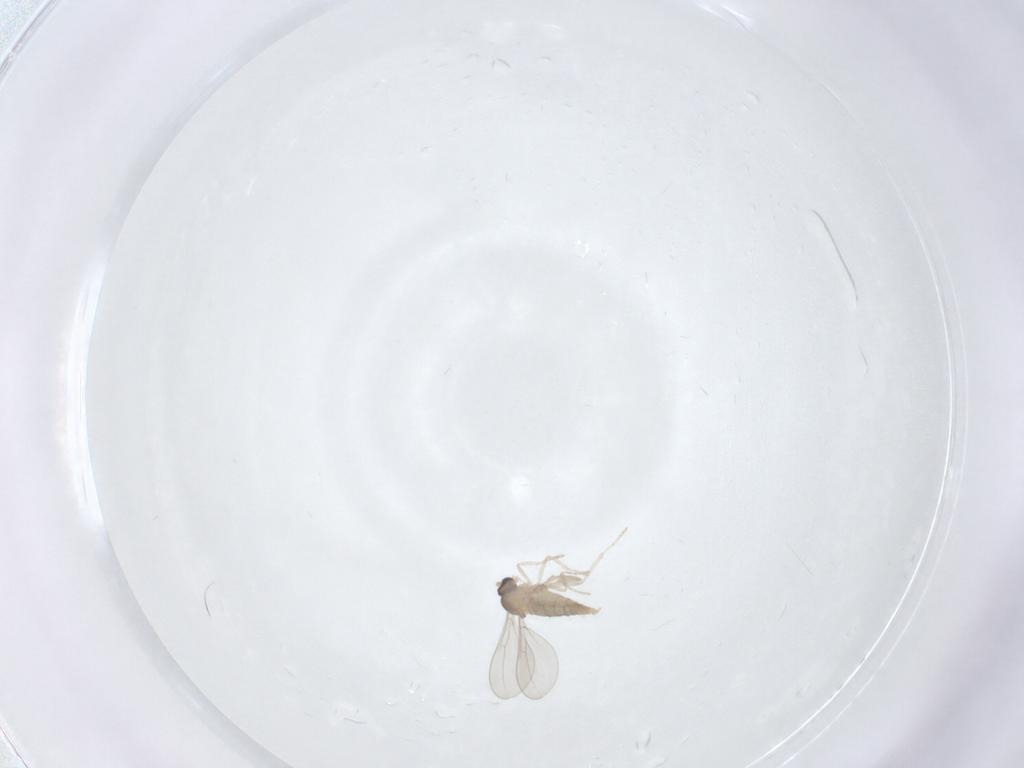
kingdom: Animalia
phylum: Arthropoda
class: Insecta
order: Diptera
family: Cecidomyiidae
